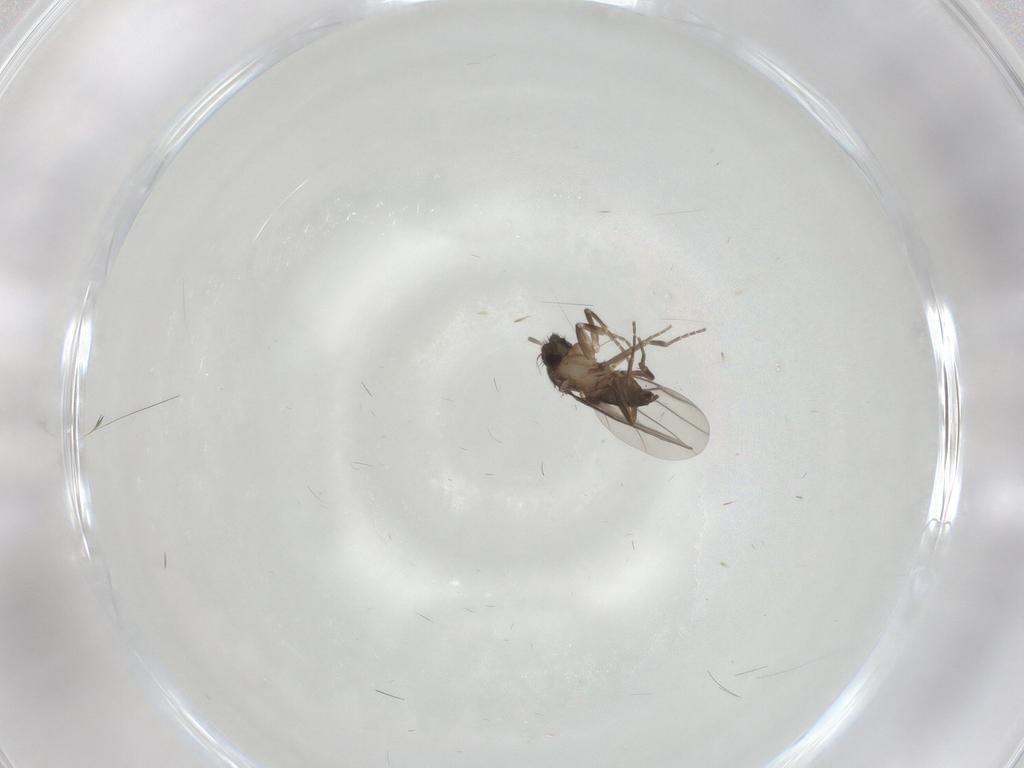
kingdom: Animalia
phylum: Arthropoda
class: Insecta
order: Diptera
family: Phoridae
